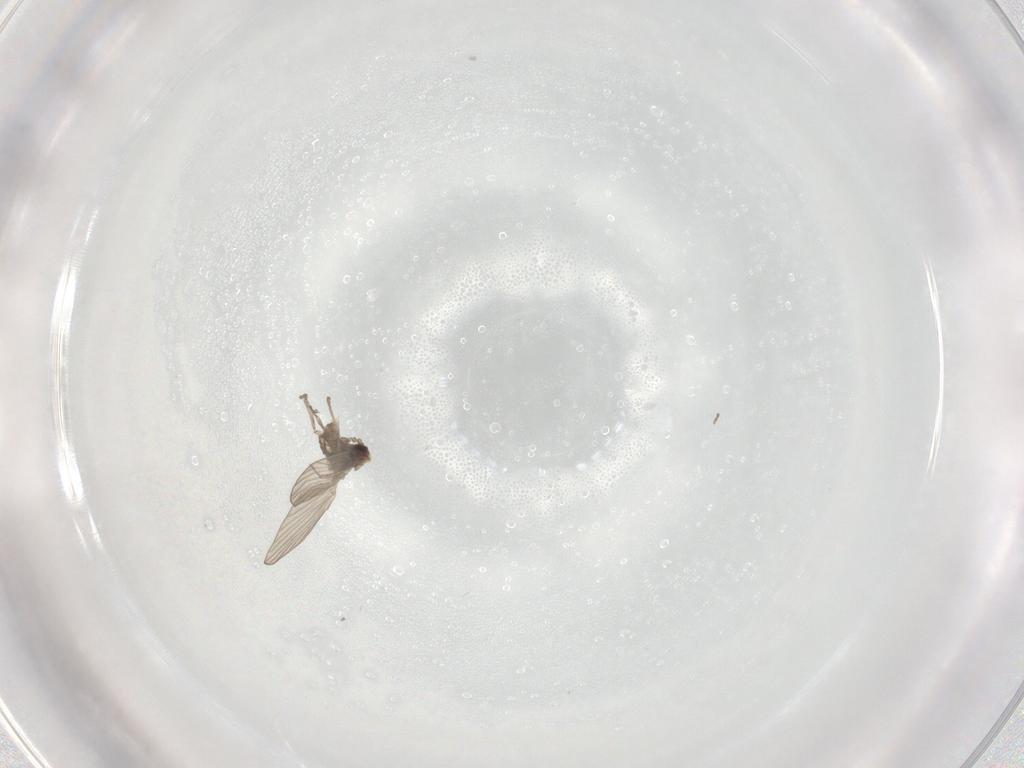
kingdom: Animalia
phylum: Arthropoda
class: Insecta
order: Diptera
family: Psychodidae
